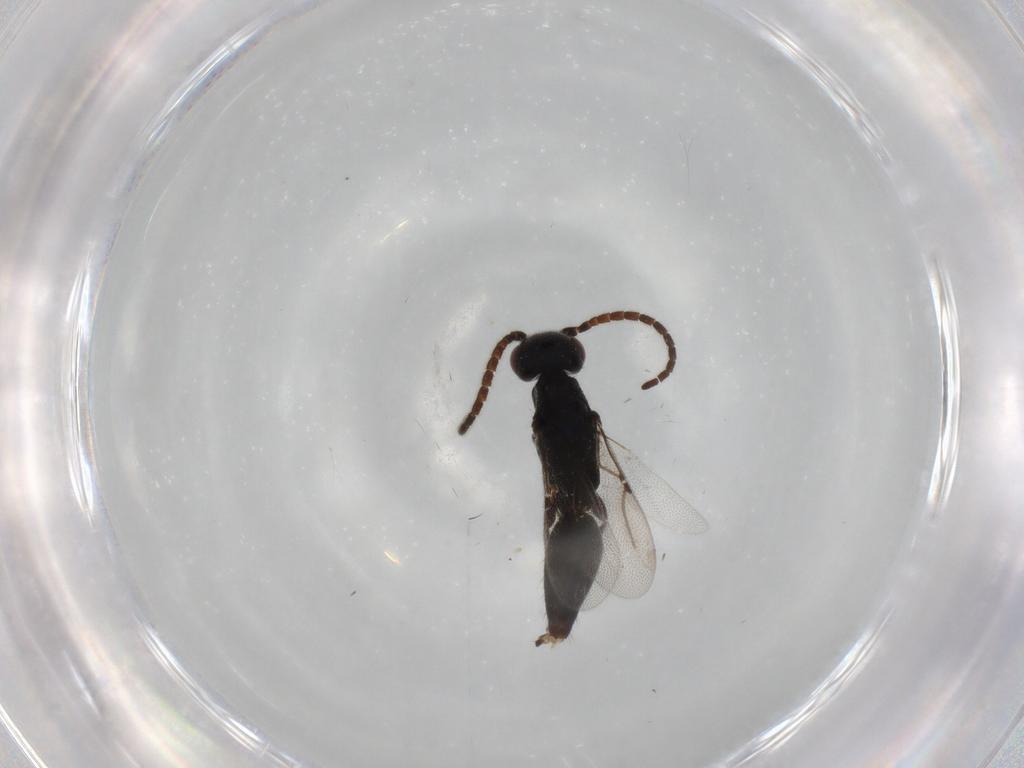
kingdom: Animalia
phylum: Arthropoda
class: Insecta
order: Hymenoptera
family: Bethylidae
